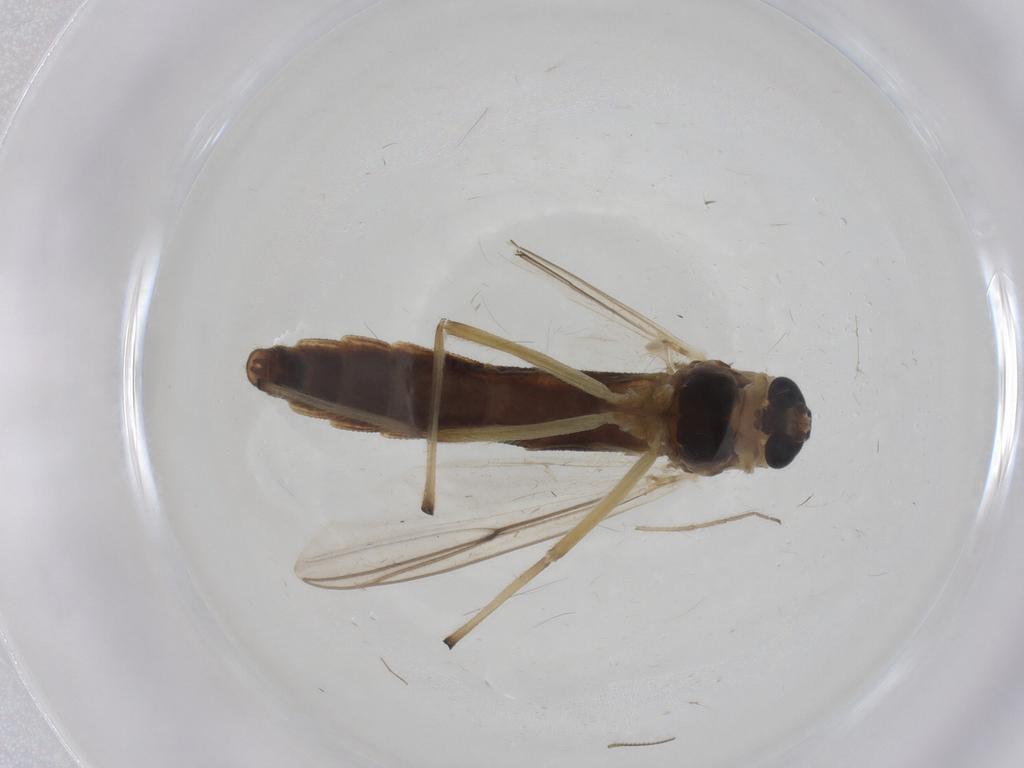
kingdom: Animalia
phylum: Arthropoda
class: Insecta
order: Diptera
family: Chironomidae
